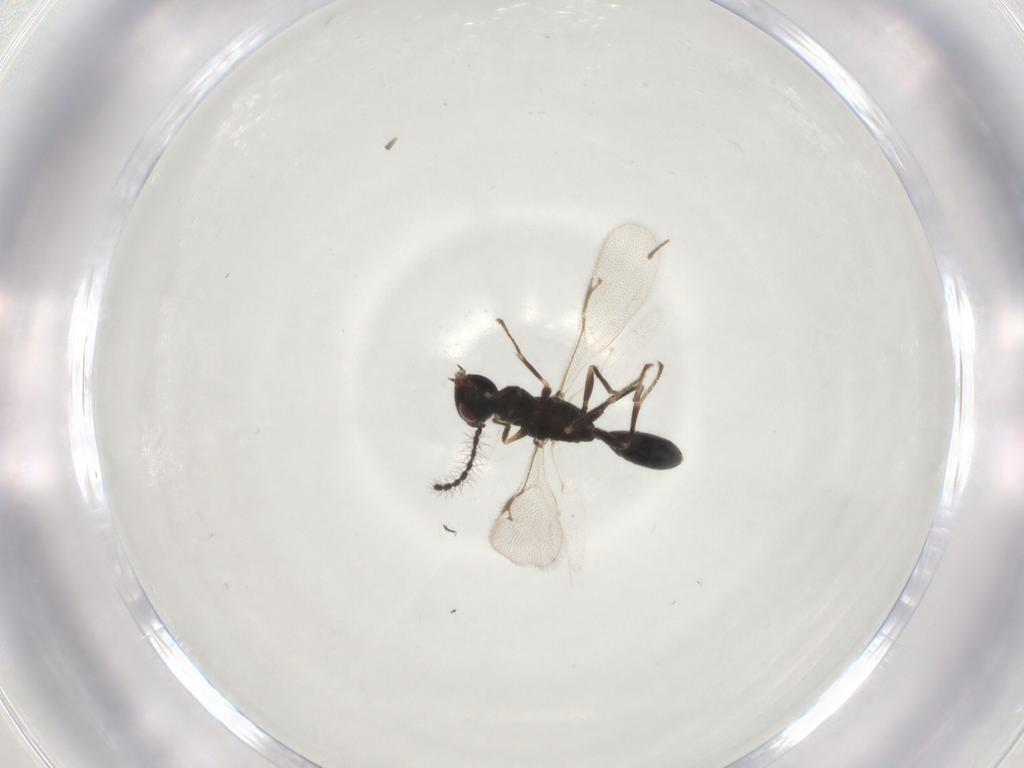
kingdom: Animalia
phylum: Arthropoda
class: Insecta
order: Hymenoptera
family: Eurytomidae
